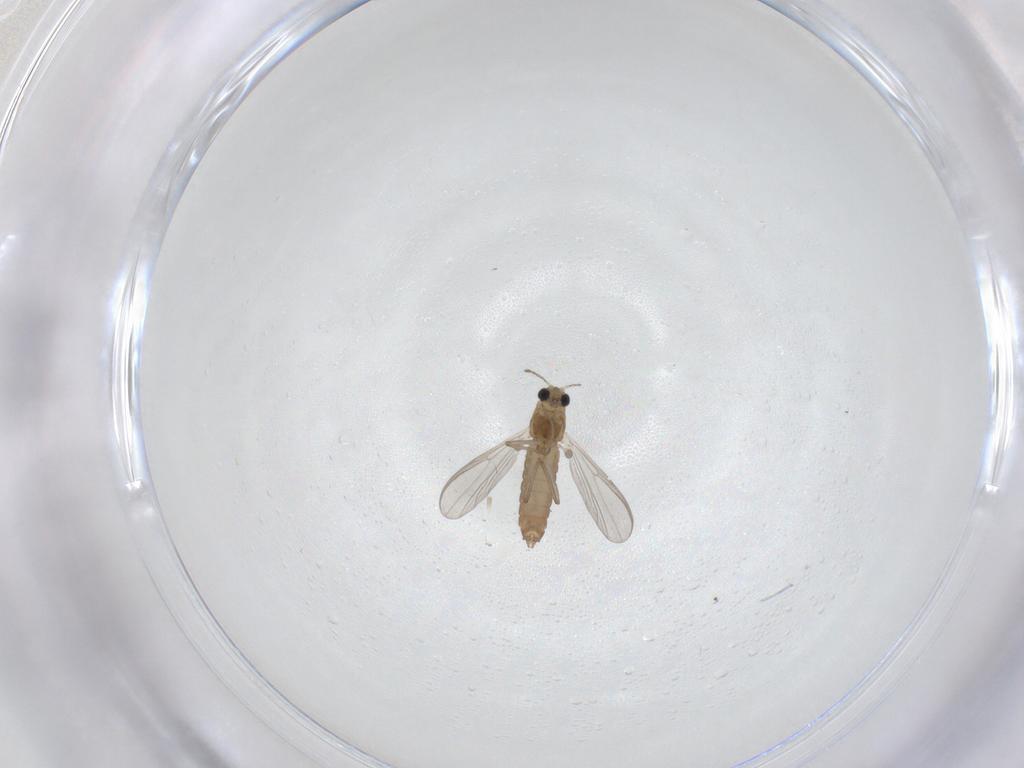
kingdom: Animalia
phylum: Arthropoda
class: Insecta
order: Diptera
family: Chironomidae
